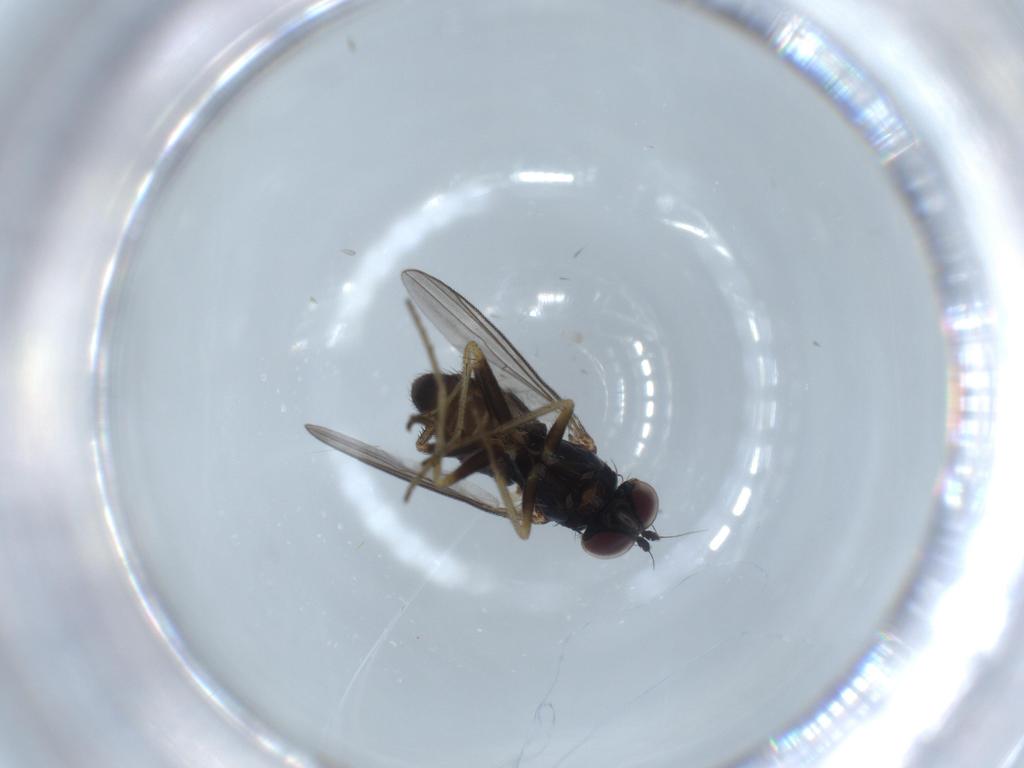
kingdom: Animalia
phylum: Arthropoda
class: Insecta
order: Diptera
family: Dolichopodidae
